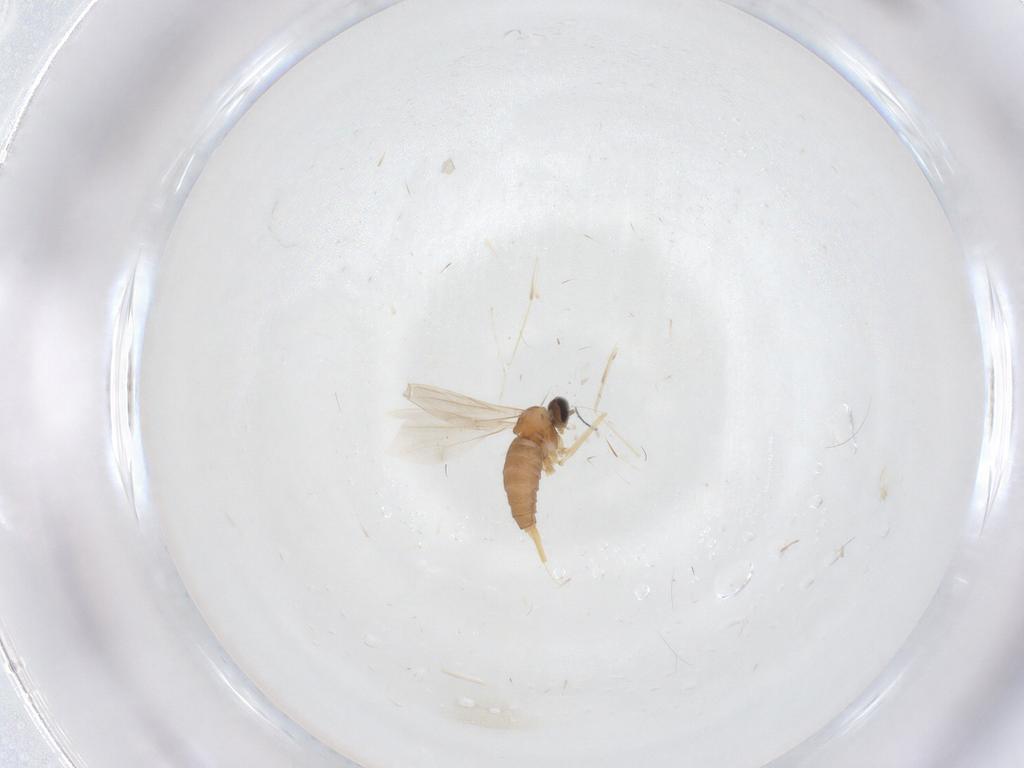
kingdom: Animalia
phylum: Arthropoda
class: Insecta
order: Diptera
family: Cecidomyiidae
